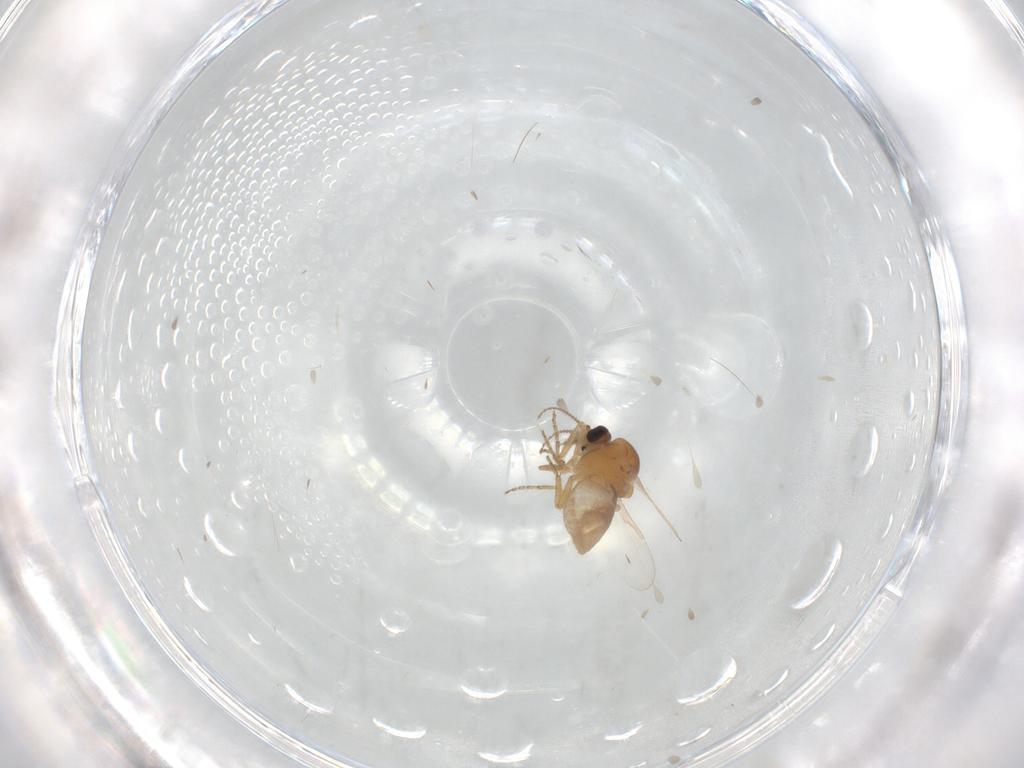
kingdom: Animalia
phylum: Arthropoda
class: Insecta
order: Diptera
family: Ceratopogonidae
